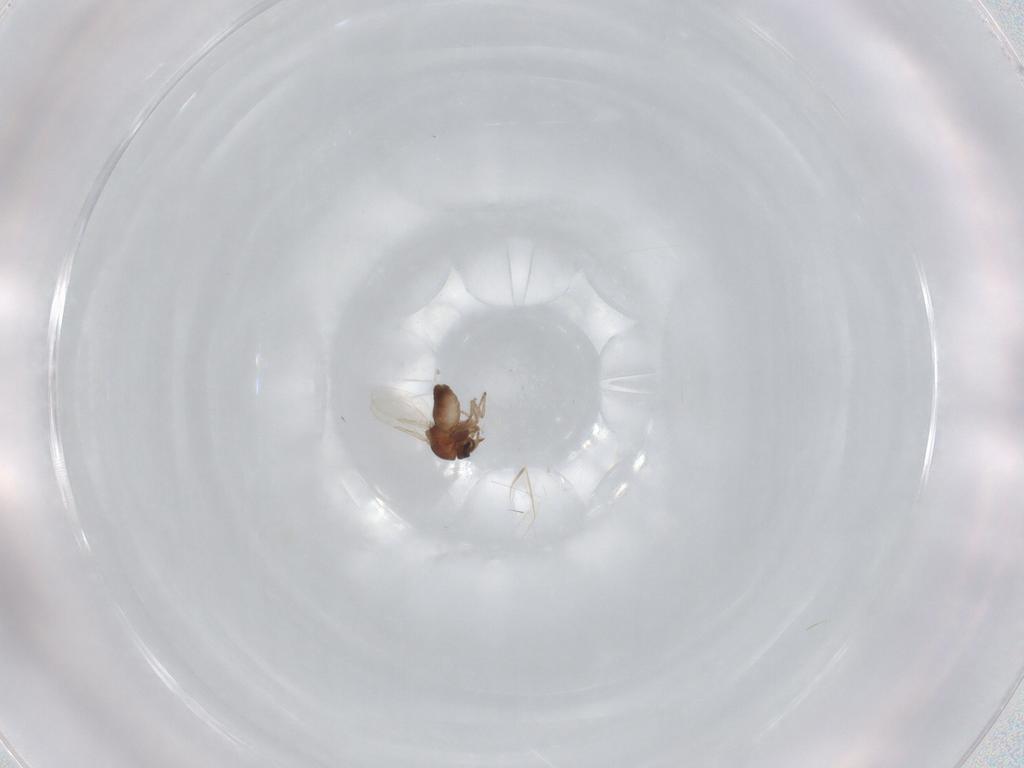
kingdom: Animalia
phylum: Arthropoda
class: Insecta
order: Diptera
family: Ceratopogonidae
